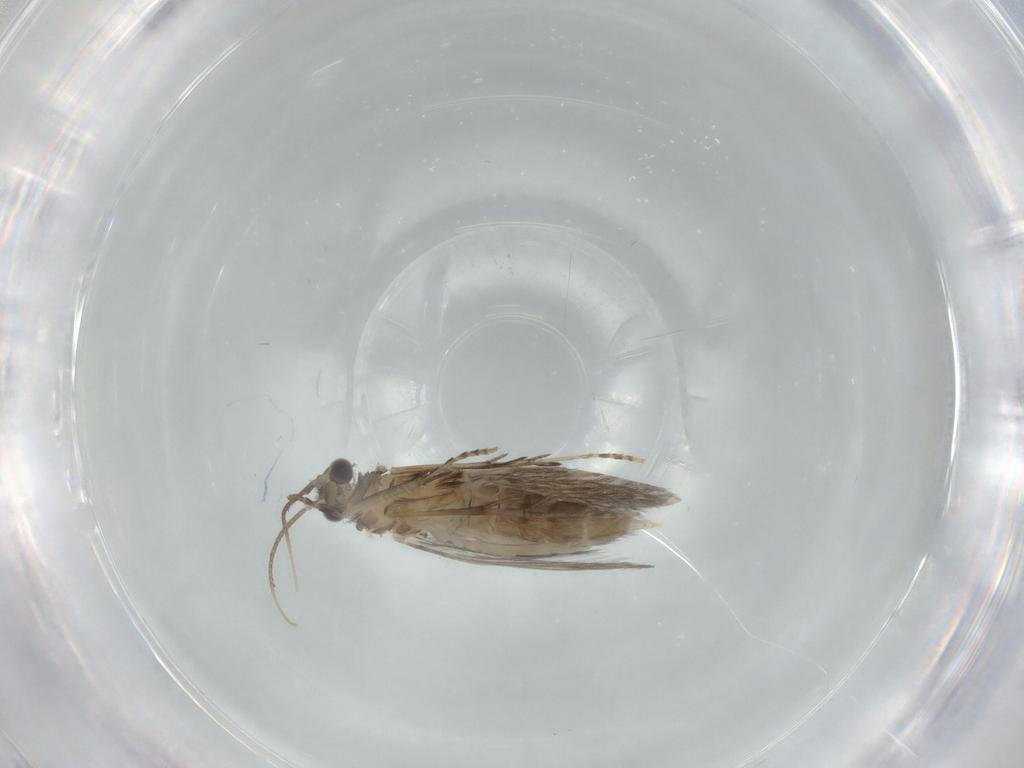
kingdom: Animalia
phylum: Arthropoda
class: Insecta
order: Trichoptera
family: Hydroptilidae
